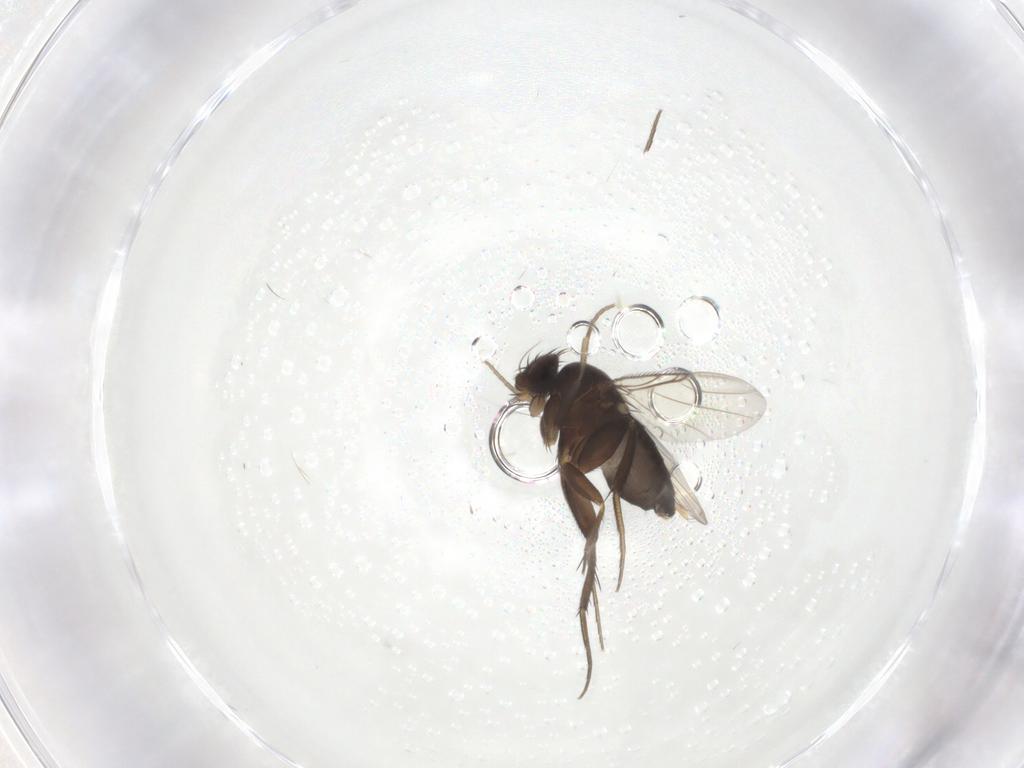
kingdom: Animalia
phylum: Arthropoda
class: Insecta
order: Diptera
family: Phoridae
